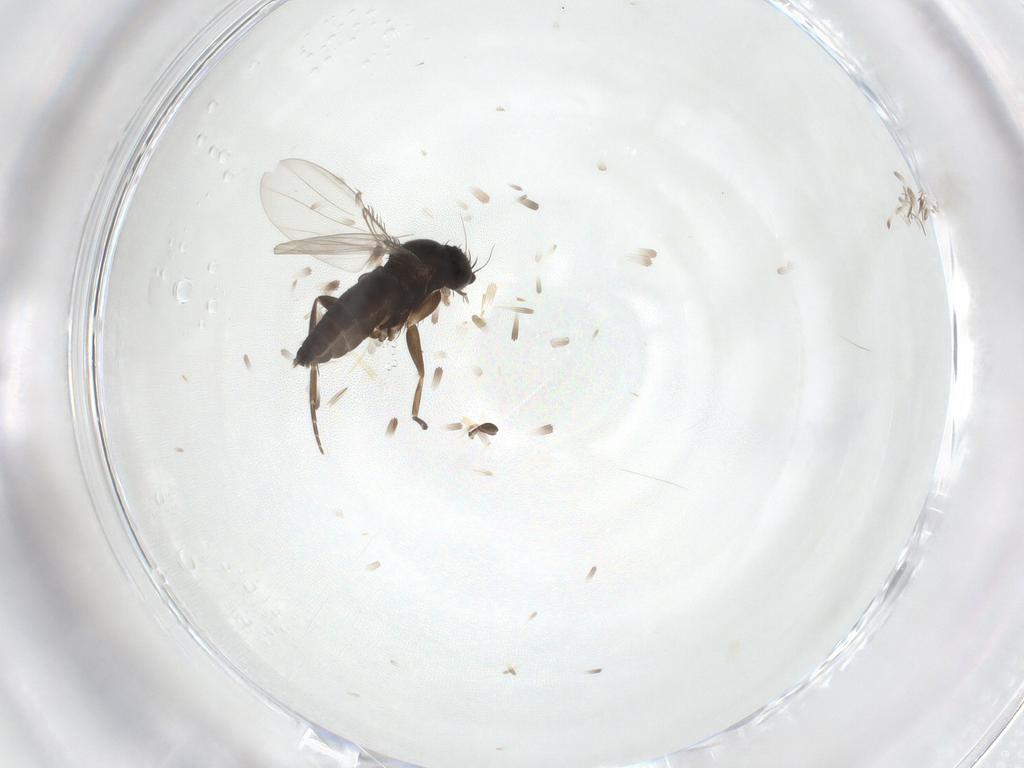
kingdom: Animalia
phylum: Arthropoda
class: Insecta
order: Diptera
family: Phoridae
